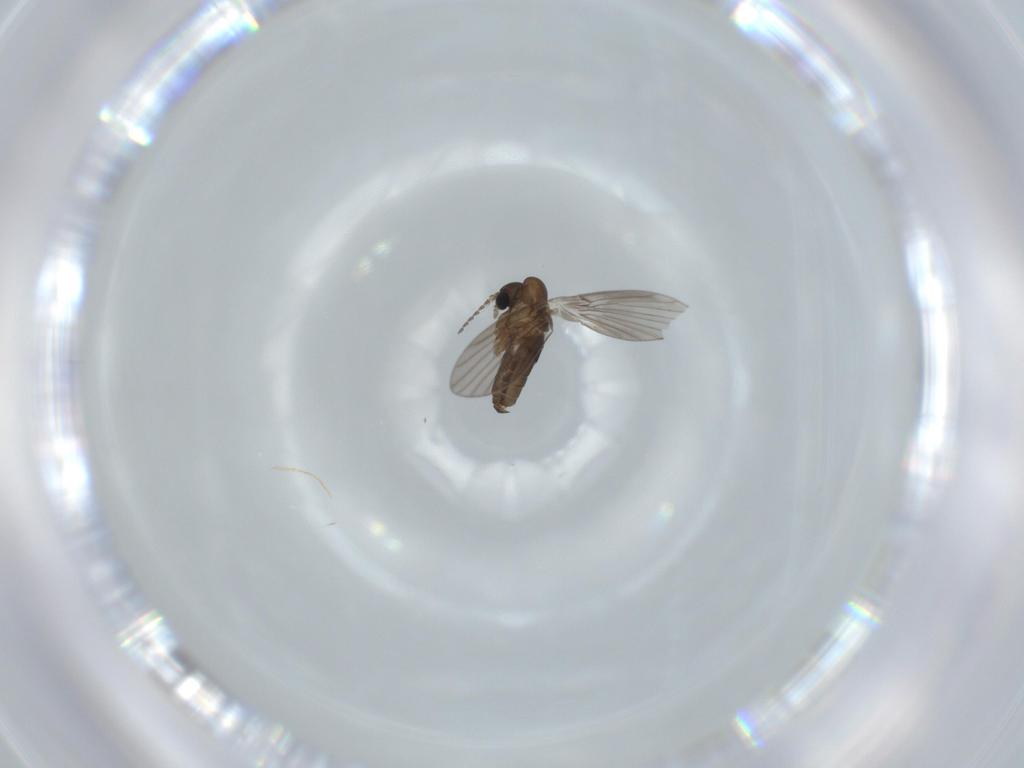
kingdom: Animalia
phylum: Arthropoda
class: Insecta
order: Diptera
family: Psychodidae
